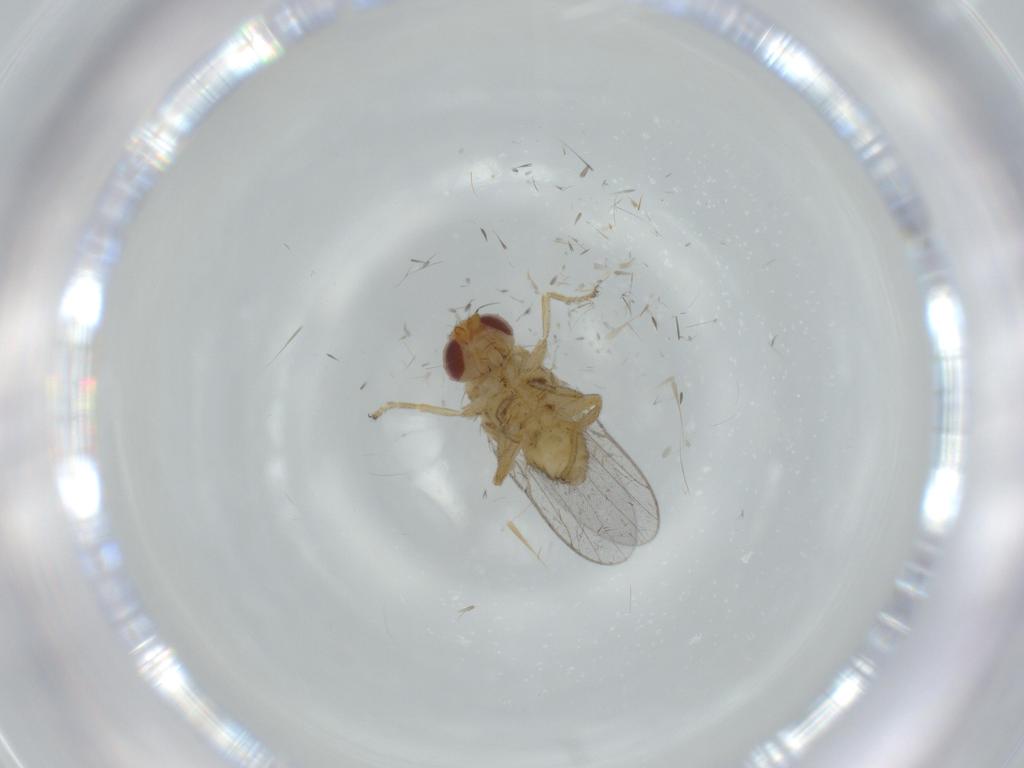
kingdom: Animalia
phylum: Arthropoda
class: Insecta
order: Diptera
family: Chloropidae
